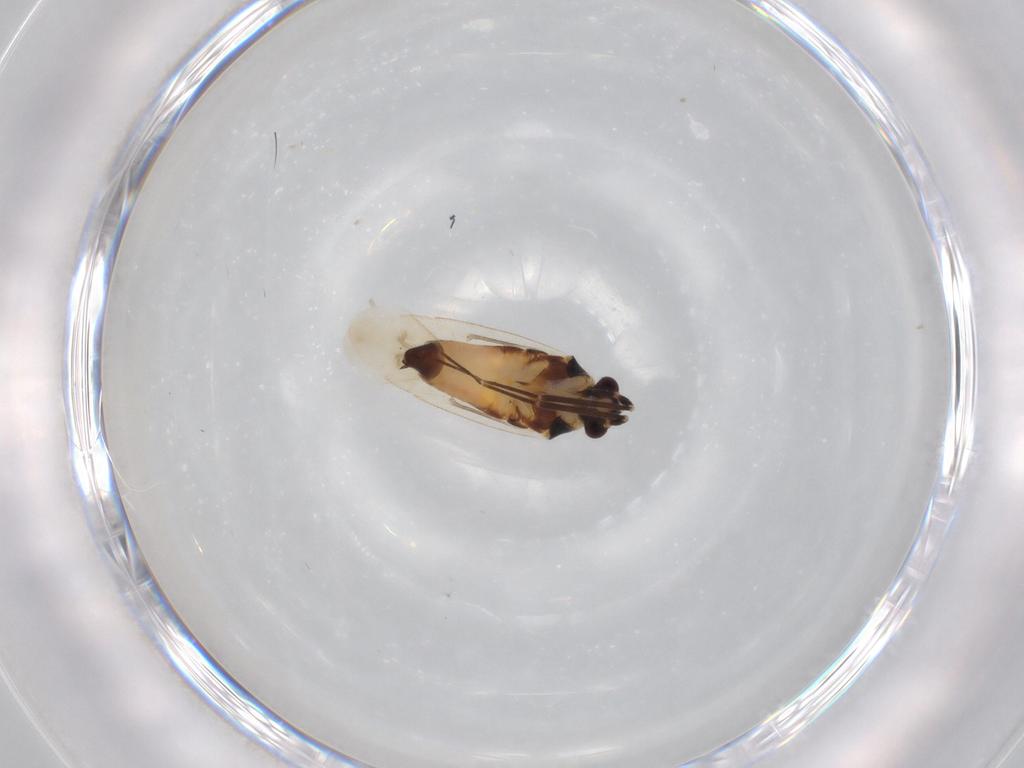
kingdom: Animalia
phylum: Arthropoda
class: Insecta
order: Hemiptera
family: Miridae
